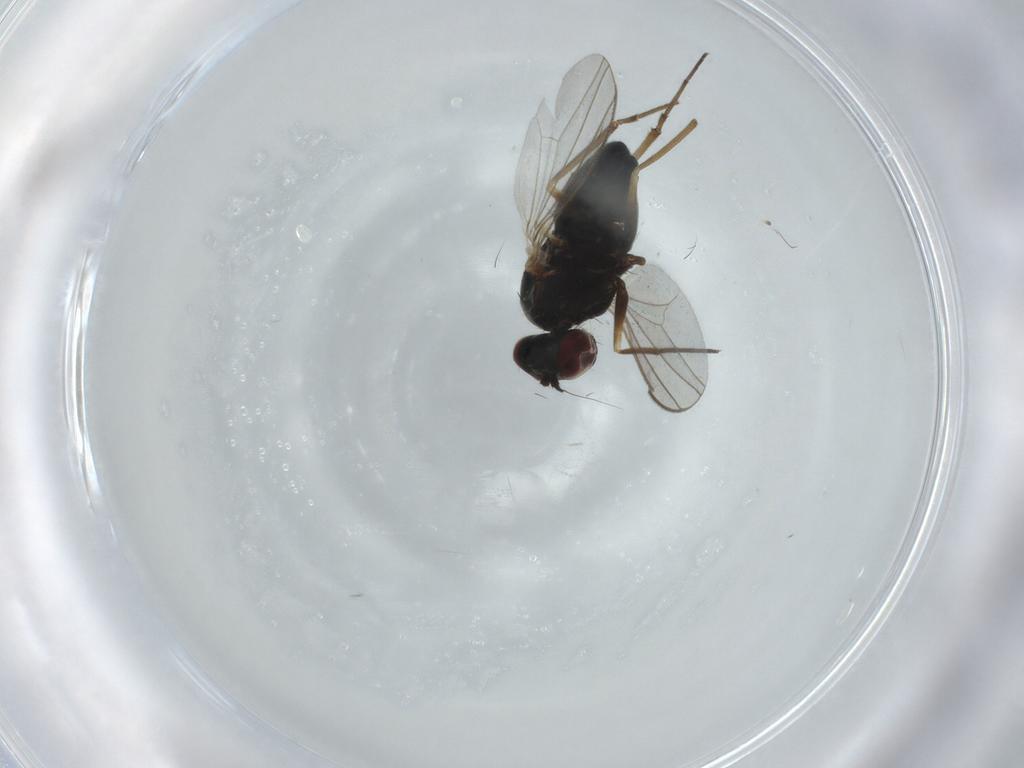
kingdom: Animalia
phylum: Arthropoda
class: Insecta
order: Diptera
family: Dolichopodidae
